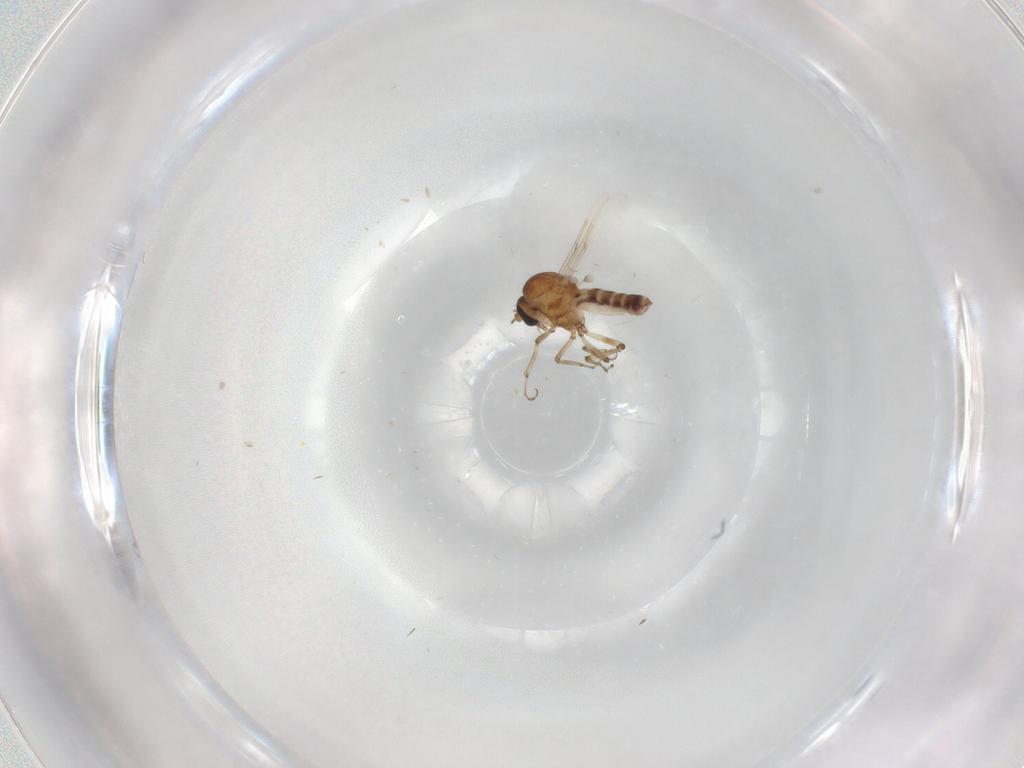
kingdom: Animalia
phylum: Arthropoda
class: Insecta
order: Diptera
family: Ceratopogonidae
